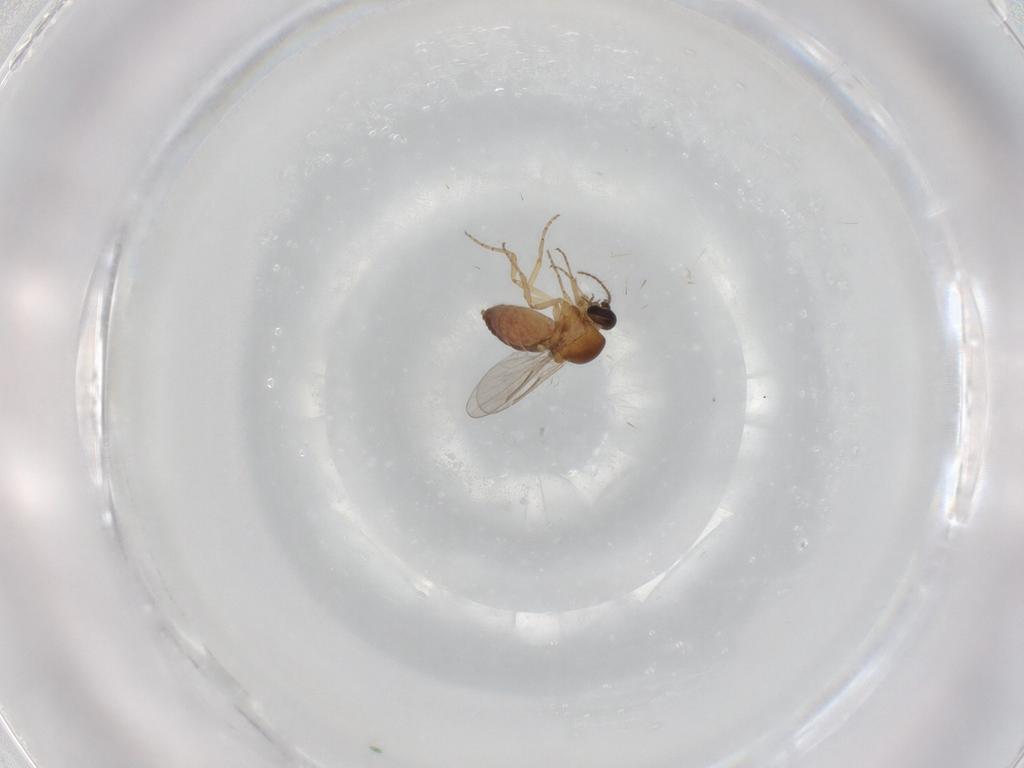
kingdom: Animalia
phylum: Arthropoda
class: Insecta
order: Diptera
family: Ceratopogonidae
